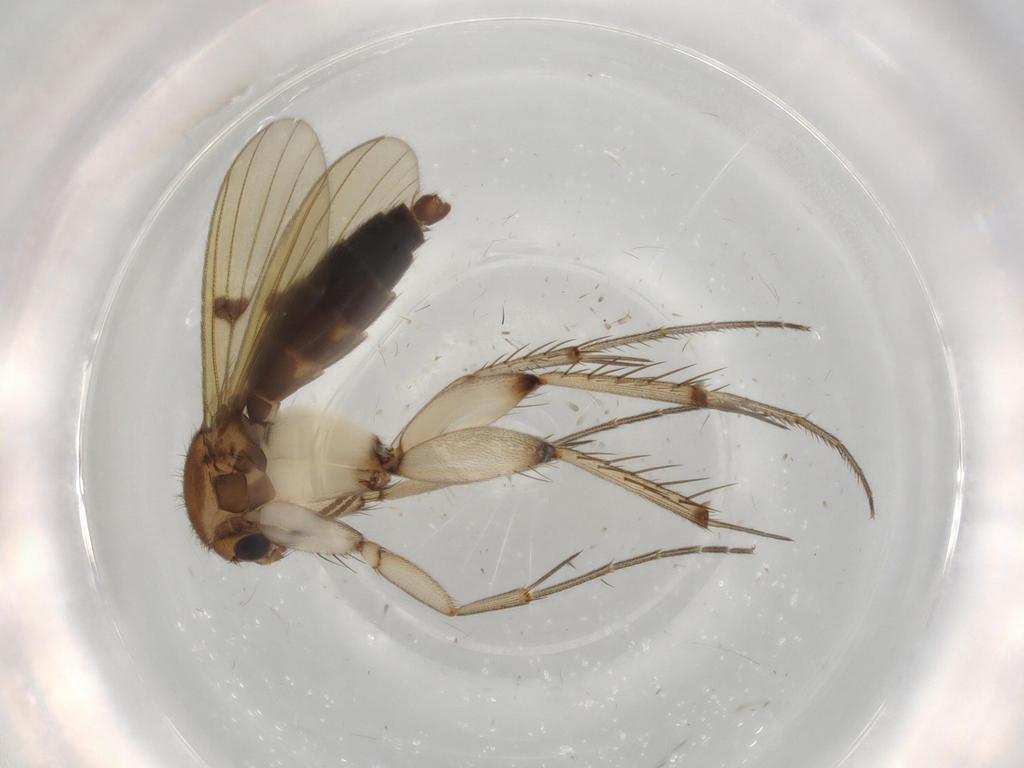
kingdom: Animalia
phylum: Arthropoda
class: Insecta
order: Diptera
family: Mycetophilidae
